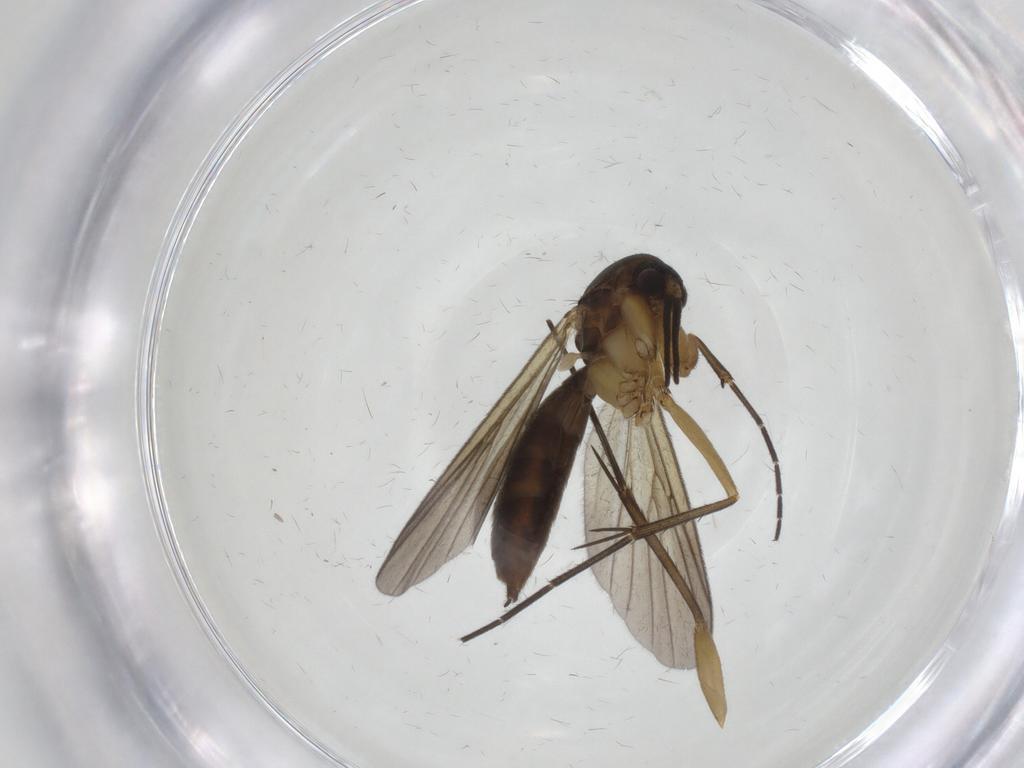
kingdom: Animalia
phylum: Arthropoda
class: Insecta
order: Diptera
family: Mycetophilidae
